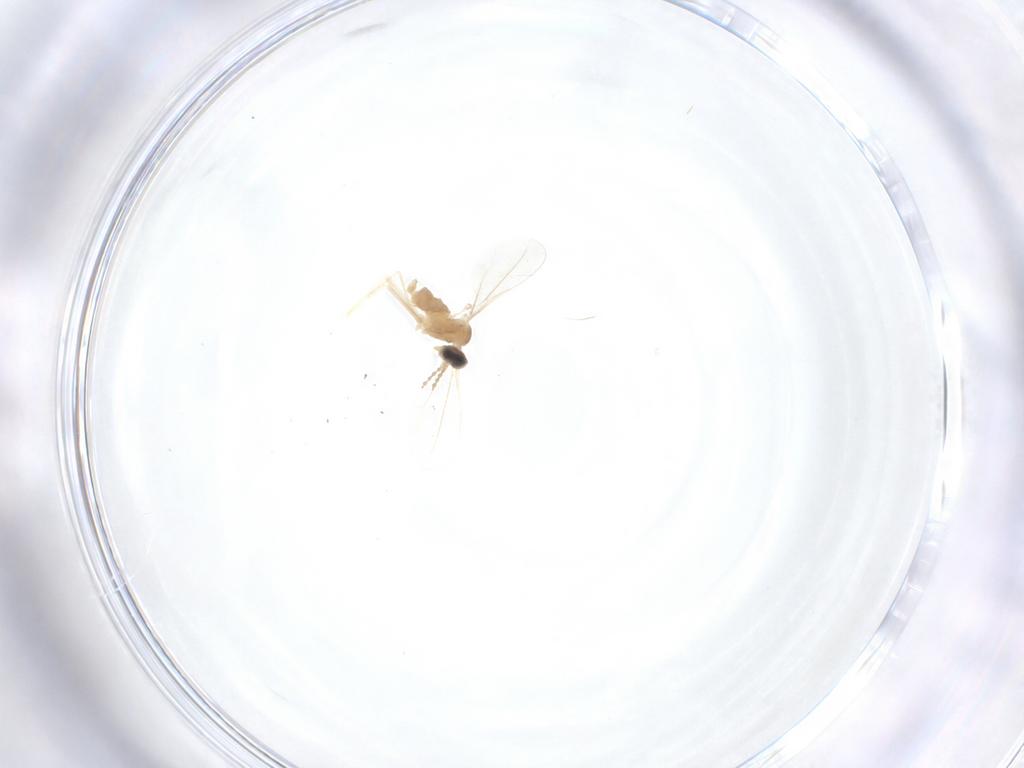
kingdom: Animalia
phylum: Arthropoda
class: Insecta
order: Diptera
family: Cecidomyiidae
